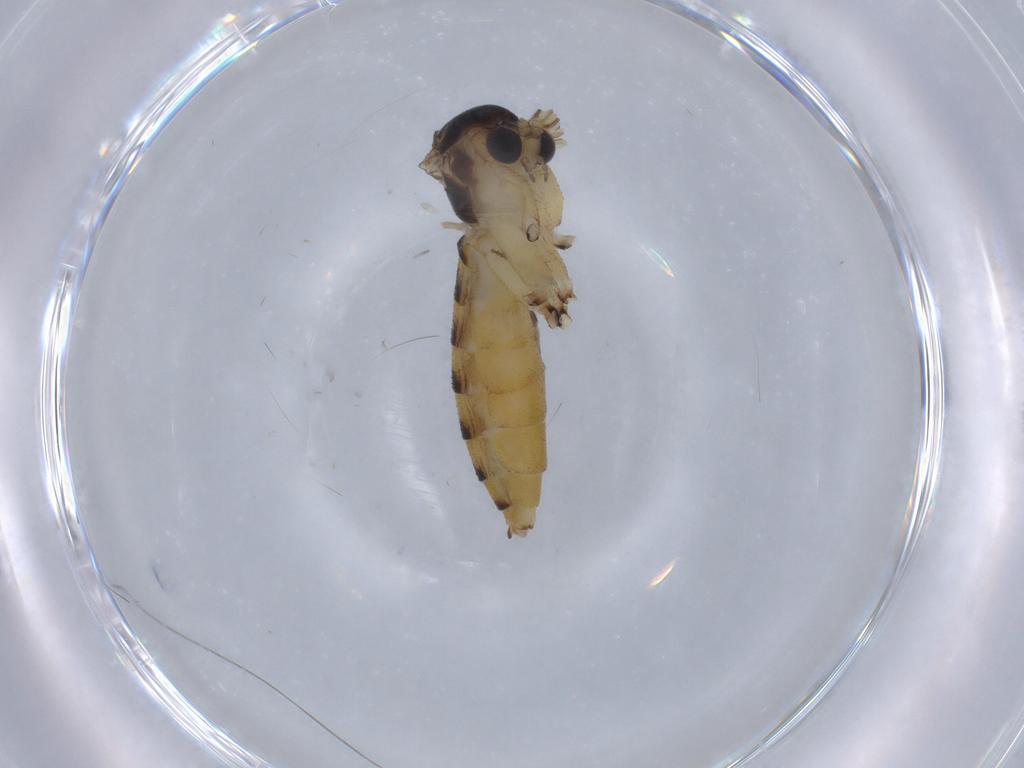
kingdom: Animalia
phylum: Arthropoda
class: Insecta
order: Diptera
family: Mycetophilidae
